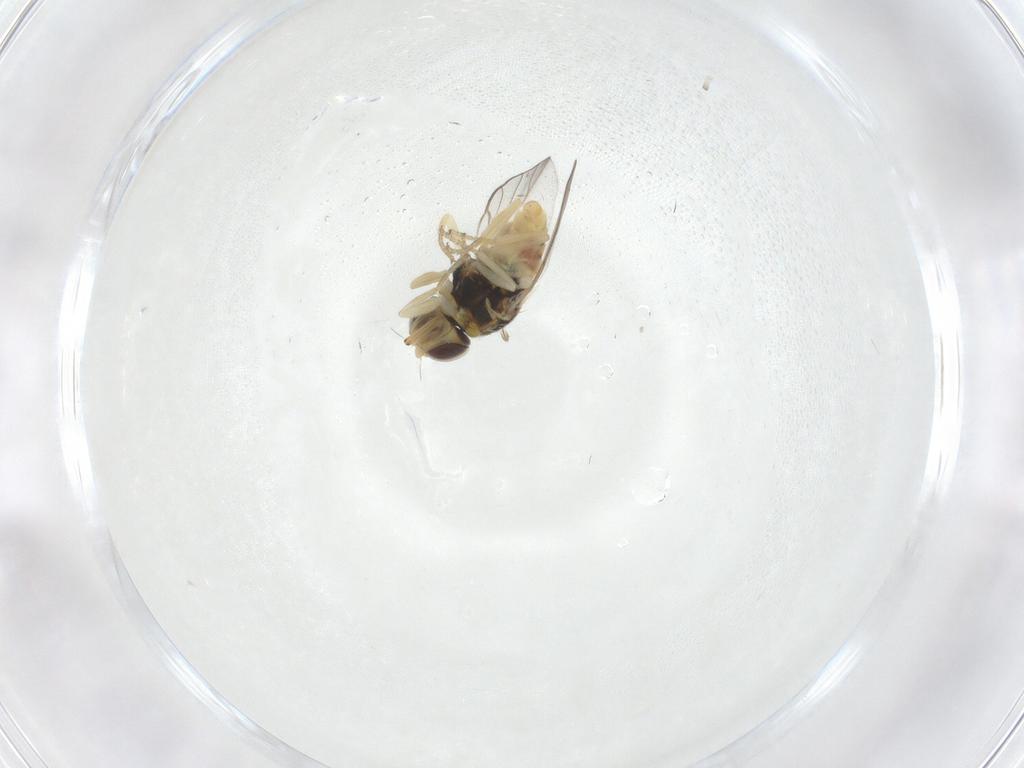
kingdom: Animalia
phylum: Arthropoda
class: Insecta
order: Diptera
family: Chloropidae
